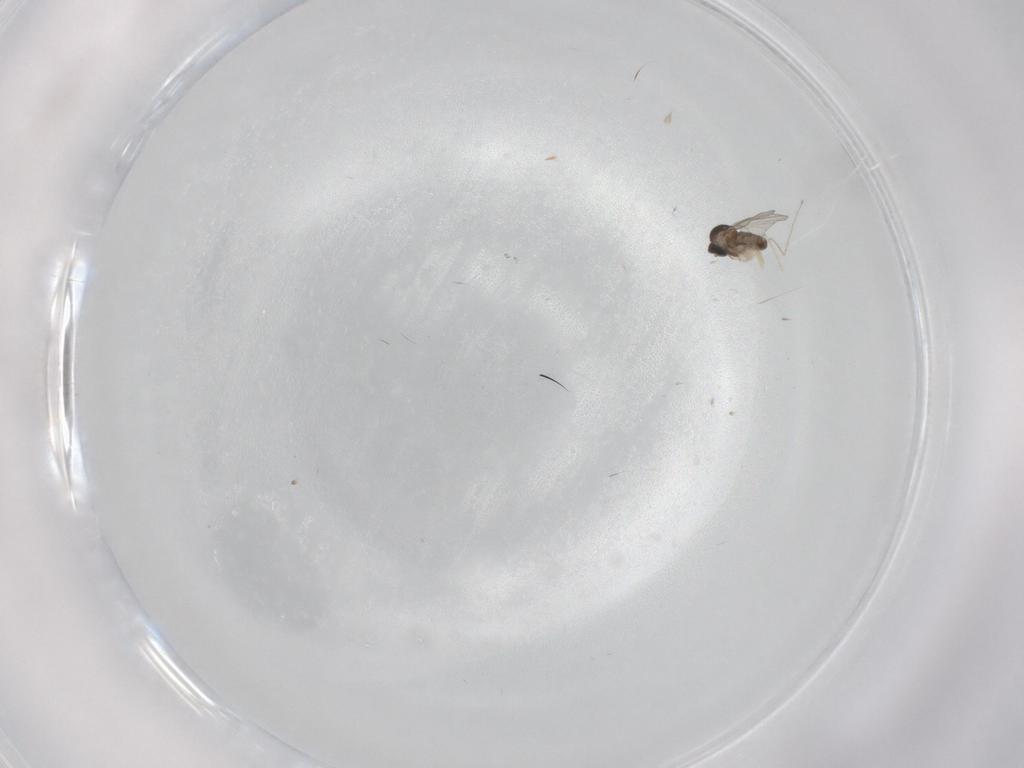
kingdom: Animalia
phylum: Arthropoda
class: Insecta
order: Diptera
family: Cecidomyiidae
